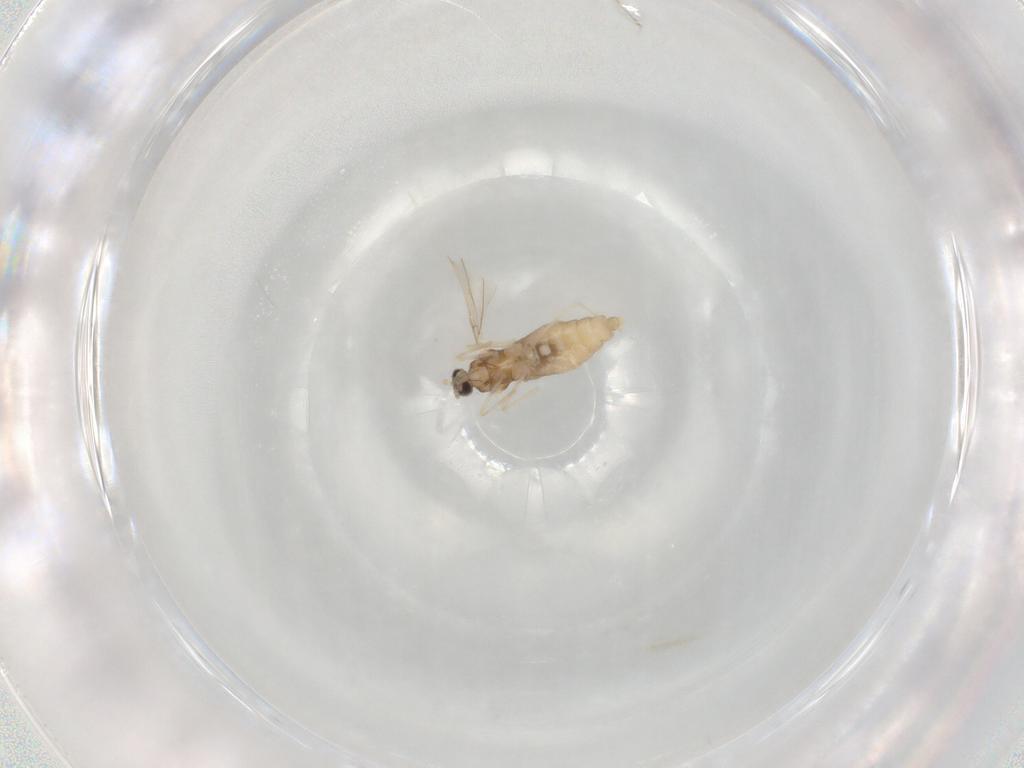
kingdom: Animalia
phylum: Arthropoda
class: Insecta
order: Diptera
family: Cecidomyiidae
